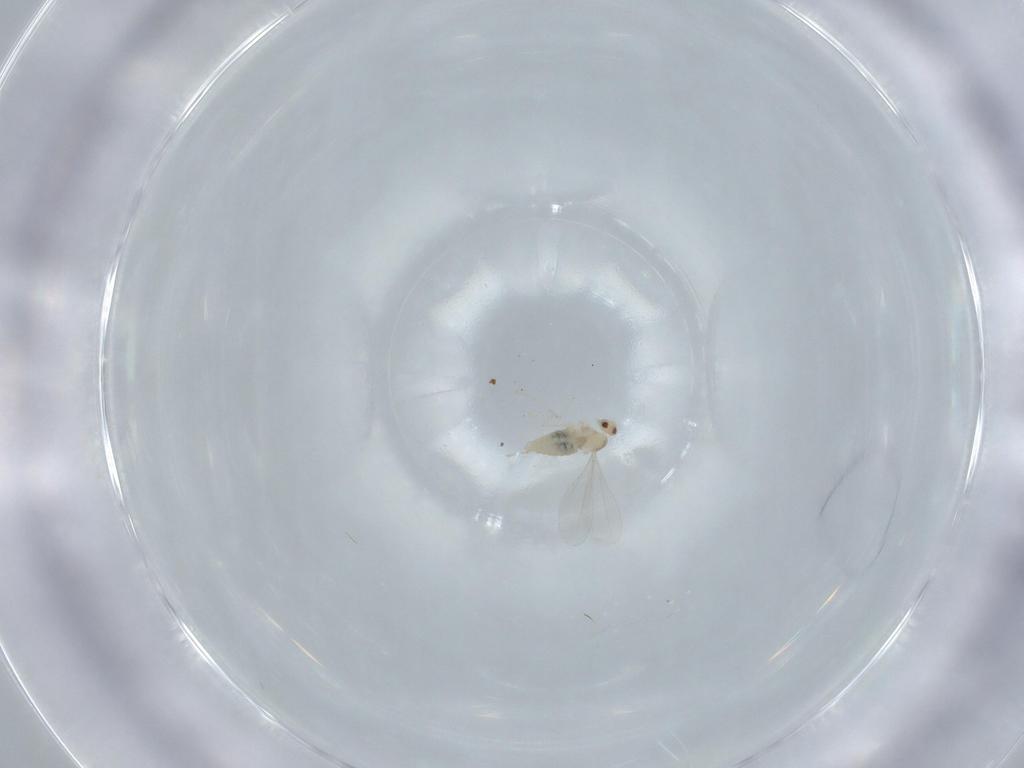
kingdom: Animalia
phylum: Arthropoda
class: Insecta
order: Diptera
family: Cecidomyiidae
